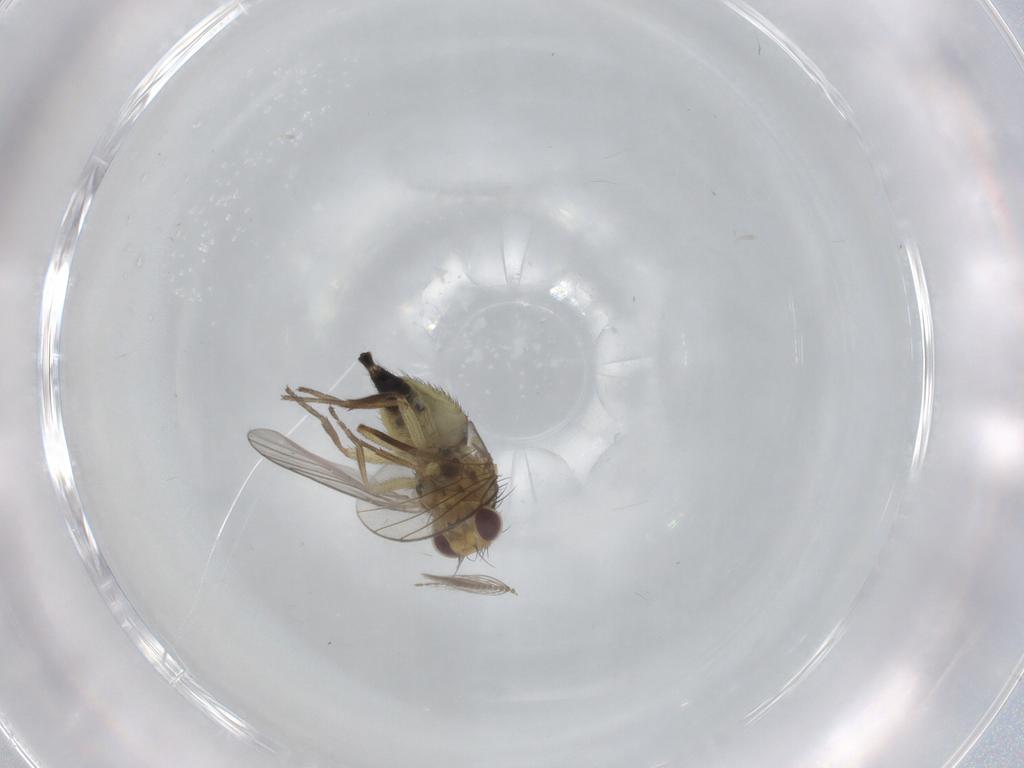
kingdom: Animalia
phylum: Arthropoda
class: Insecta
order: Diptera
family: Agromyzidae
